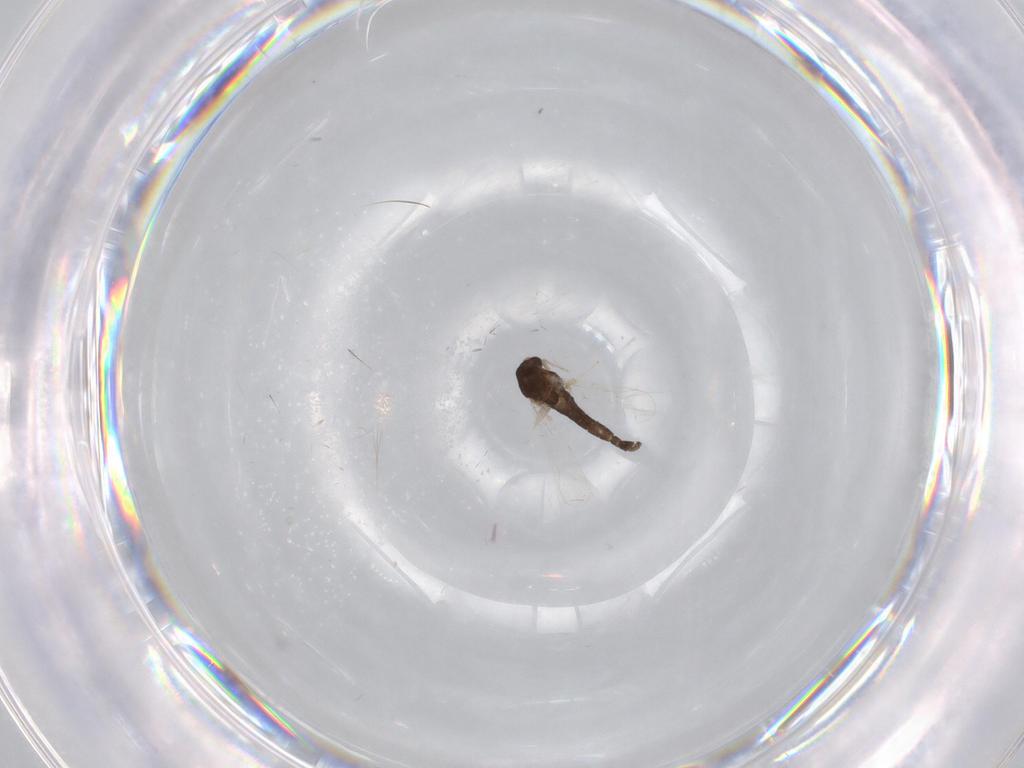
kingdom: Animalia
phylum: Arthropoda
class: Insecta
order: Diptera
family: Chironomidae
